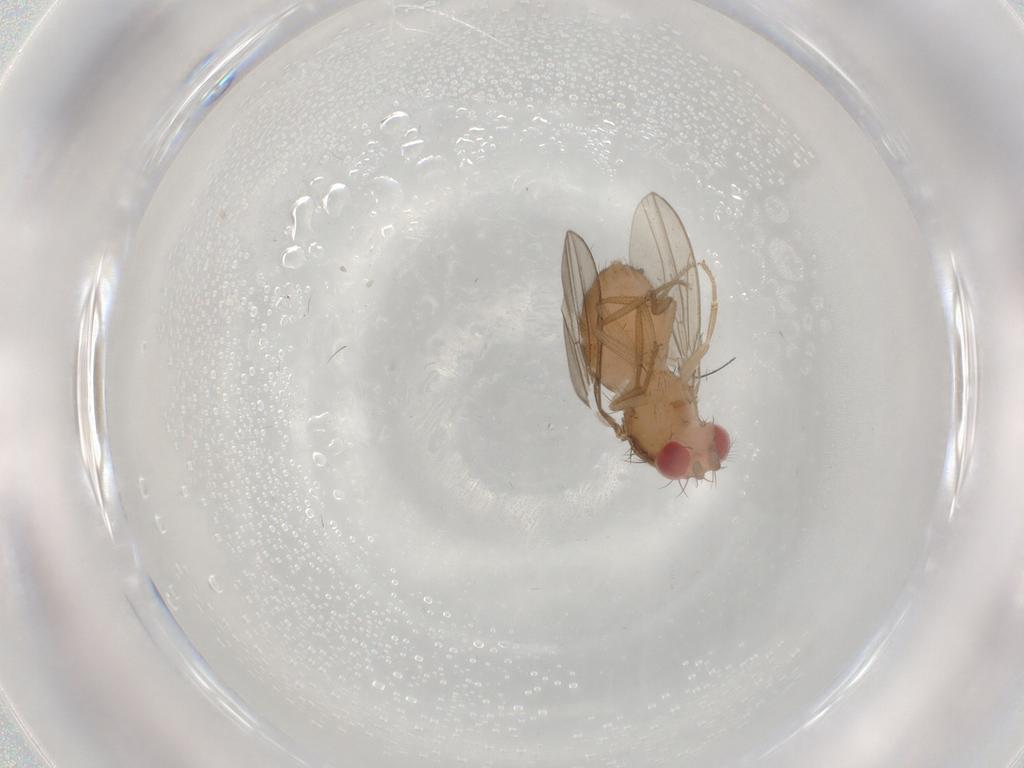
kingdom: Animalia
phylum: Arthropoda
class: Insecta
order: Diptera
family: Drosophilidae
